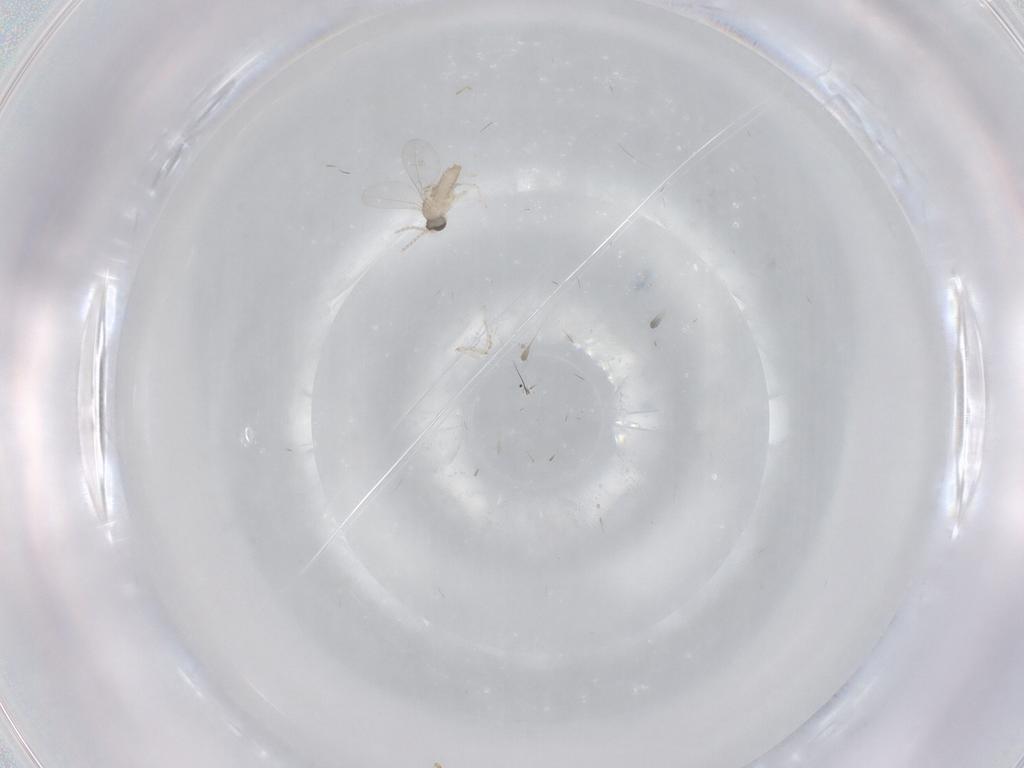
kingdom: Animalia
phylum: Arthropoda
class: Insecta
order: Diptera
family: Cecidomyiidae
